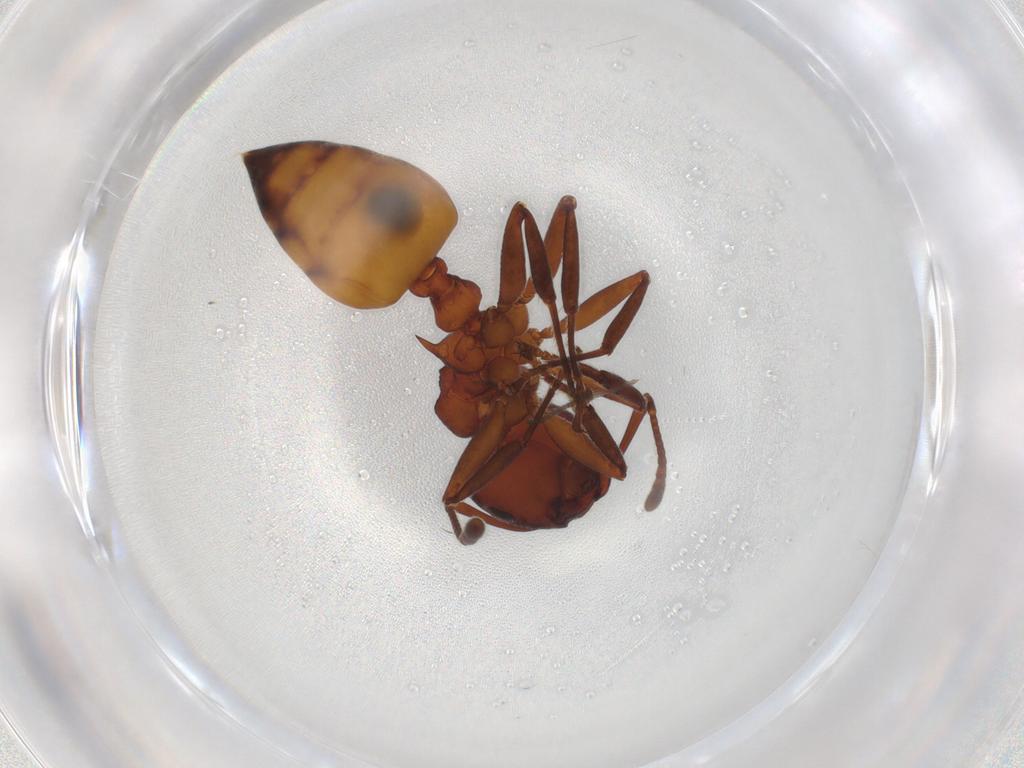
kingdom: Animalia
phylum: Arthropoda
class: Insecta
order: Hymenoptera
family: Formicidae
